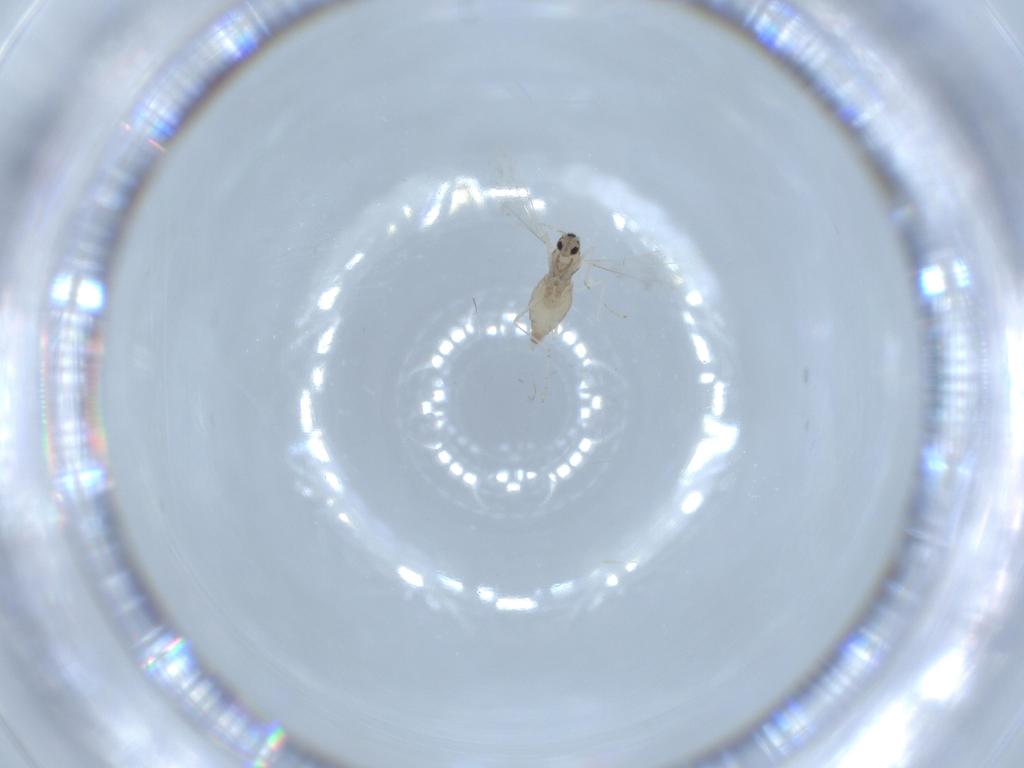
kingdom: Animalia
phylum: Arthropoda
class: Insecta
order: Diptera
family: Cecidomyiidae
